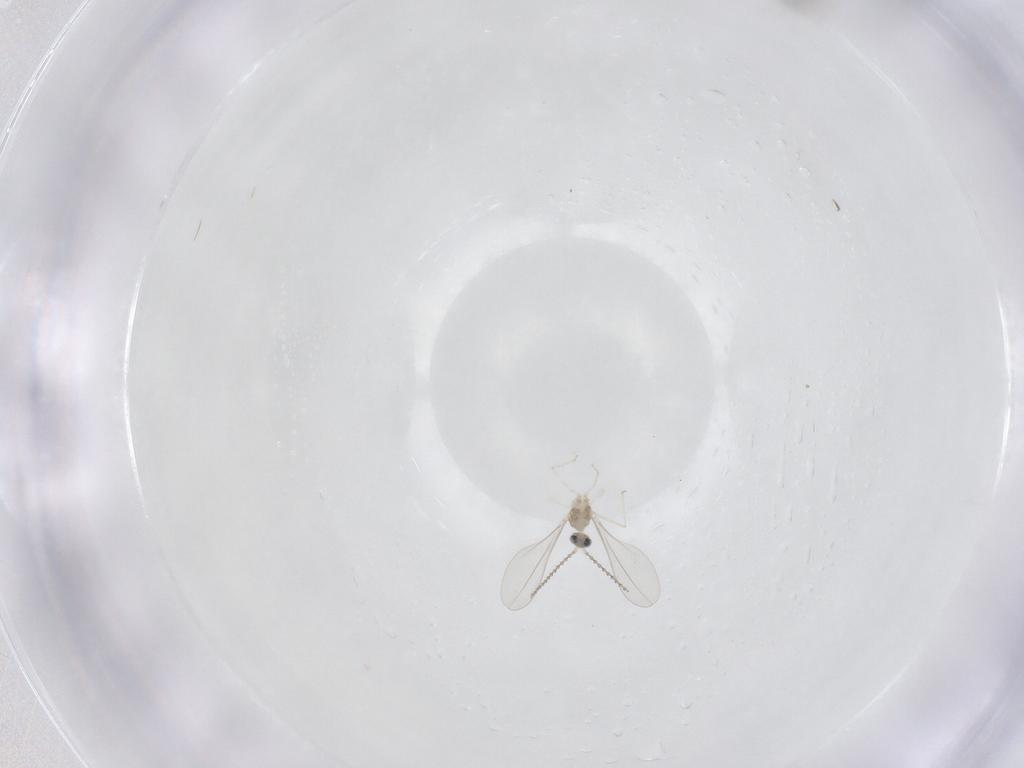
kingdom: Animalia
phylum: Arthropoda
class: Insecta
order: Diptera
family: Cecidomyiidae
